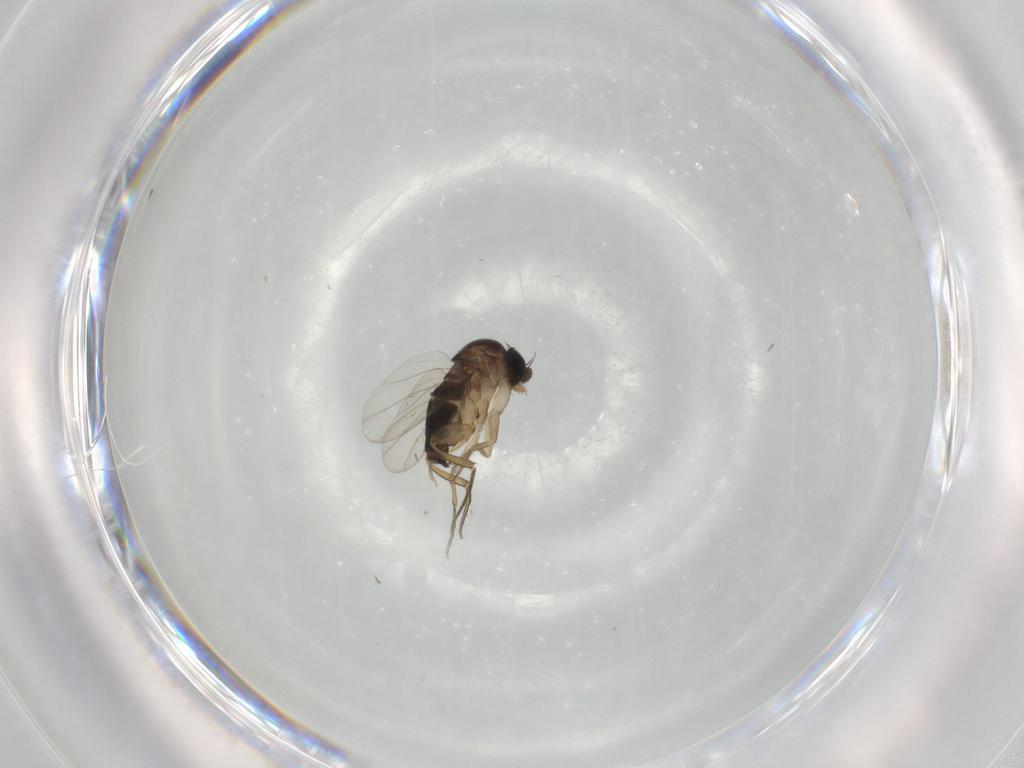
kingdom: Animalia
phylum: Arthropoda
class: Insecta
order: Diptera
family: Phoridae
